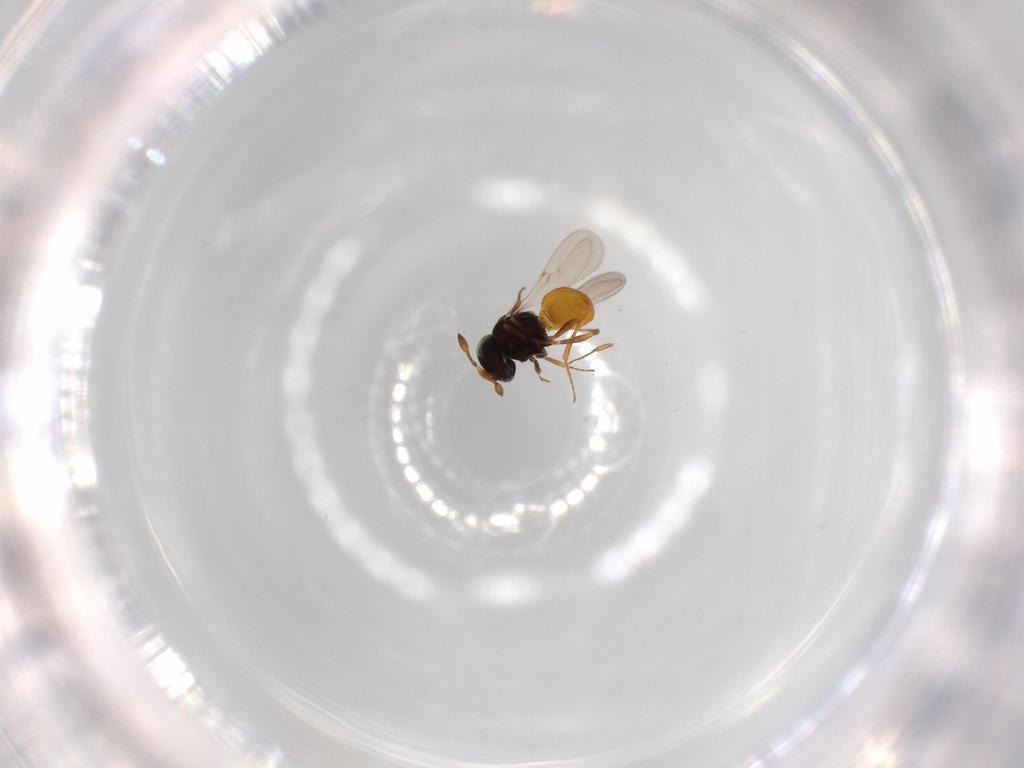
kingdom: Animalia
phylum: Arthropoda
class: Insecta
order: Hymenoptera
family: Scelionidae
